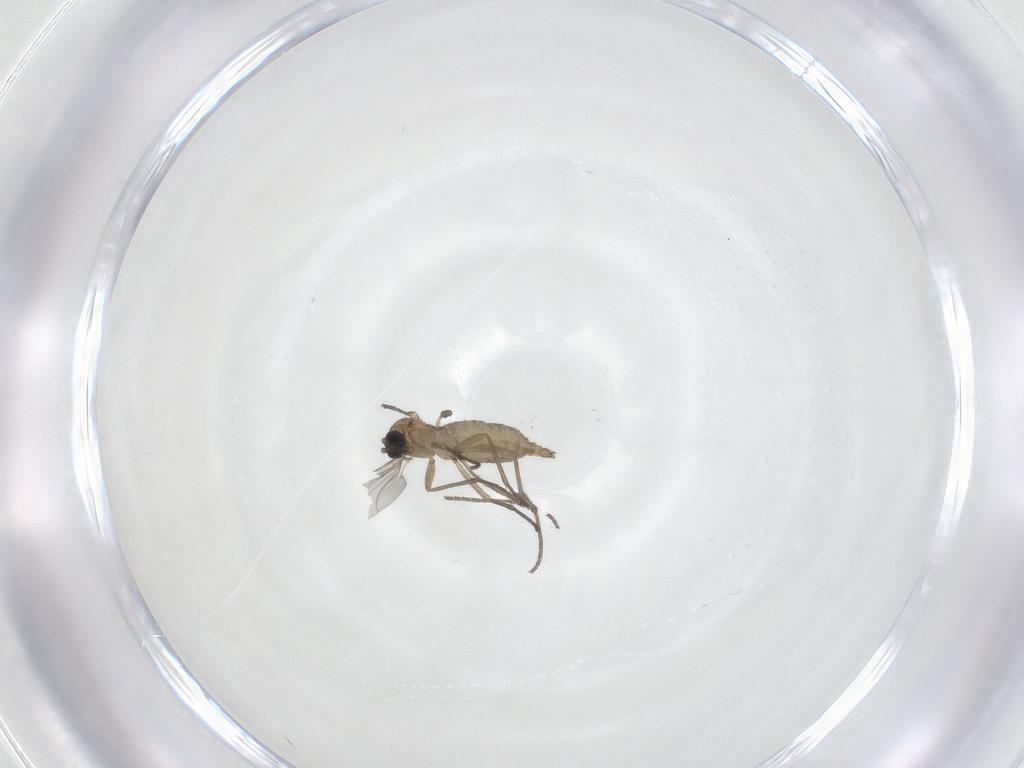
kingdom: Animalia
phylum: Arthropoda
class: Insecta
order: Diptera
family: Sciaridae
